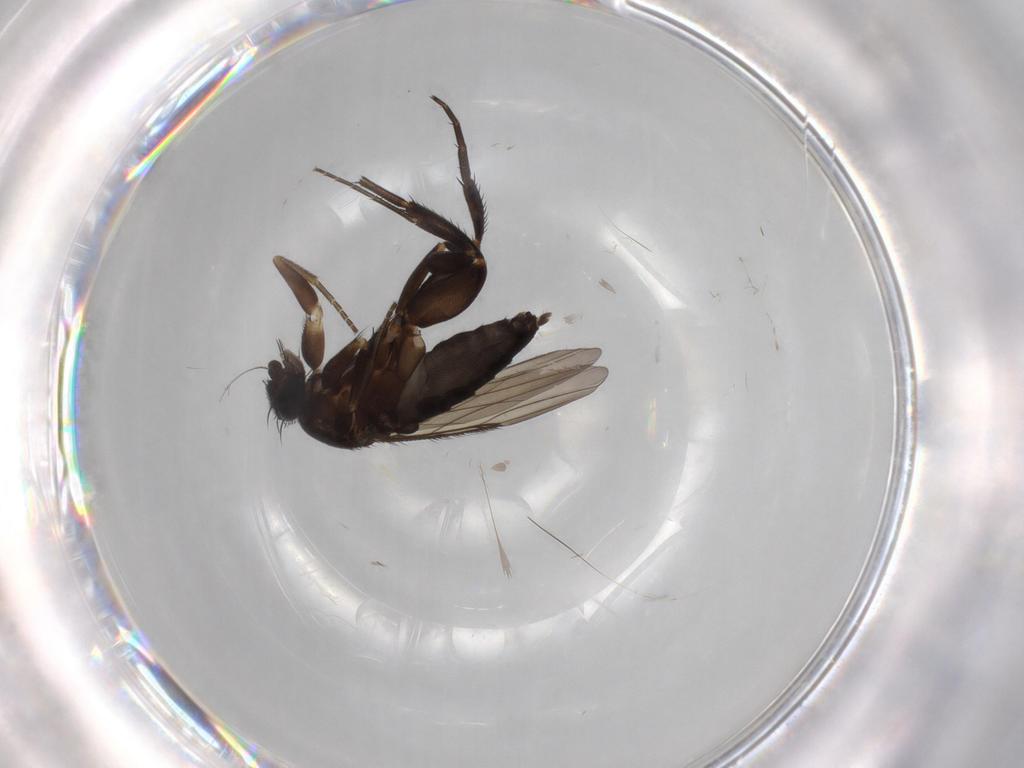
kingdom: Animalia
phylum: Arthropoda
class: Insecta
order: Diptera
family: Phoridae
